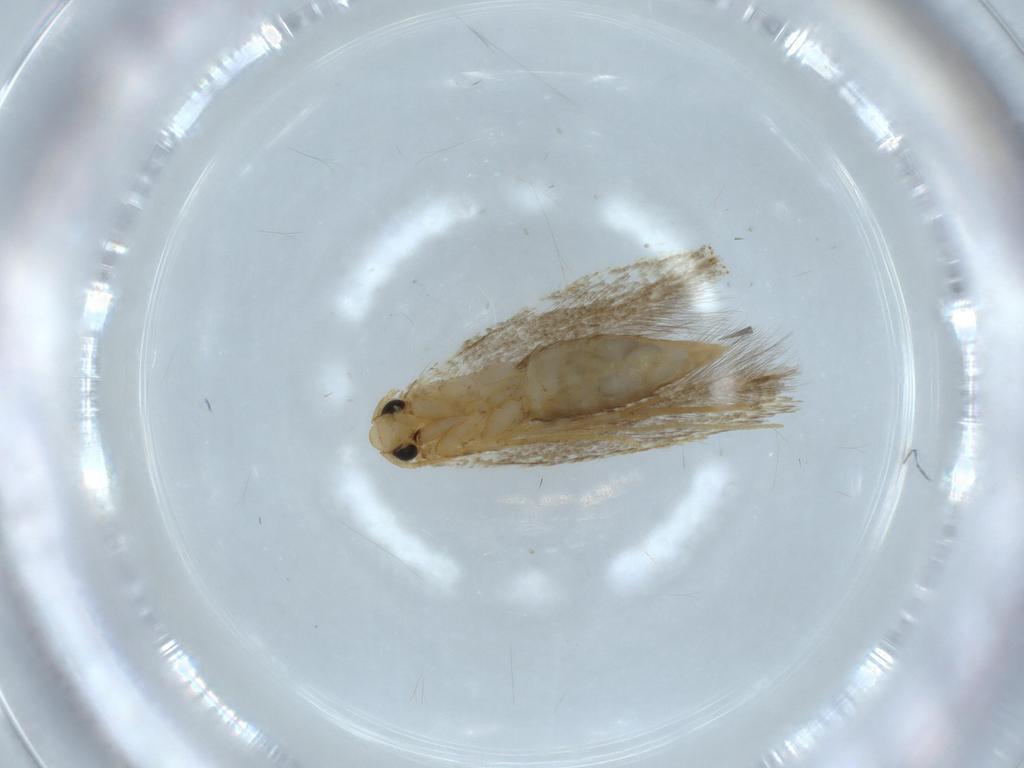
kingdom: Animalia
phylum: Arthropoda
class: Insecta
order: Lepidoptera
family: Tineidae
